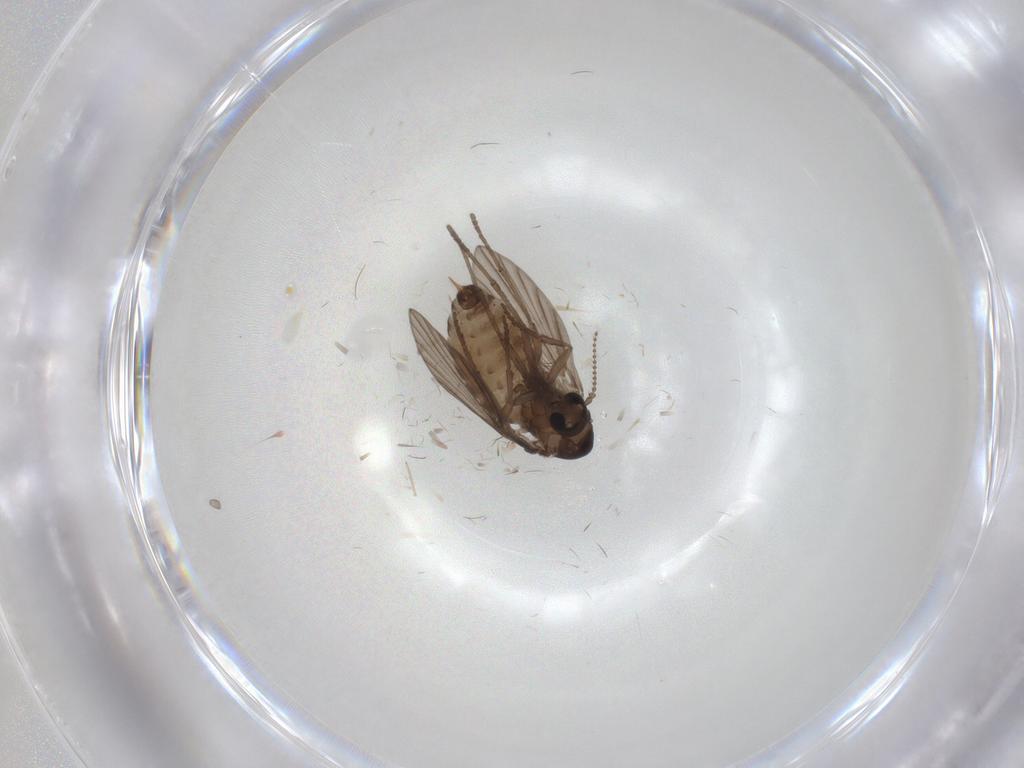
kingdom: Animalia
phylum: Arthropoda
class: Insecta
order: Diptera
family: Psychodidae
